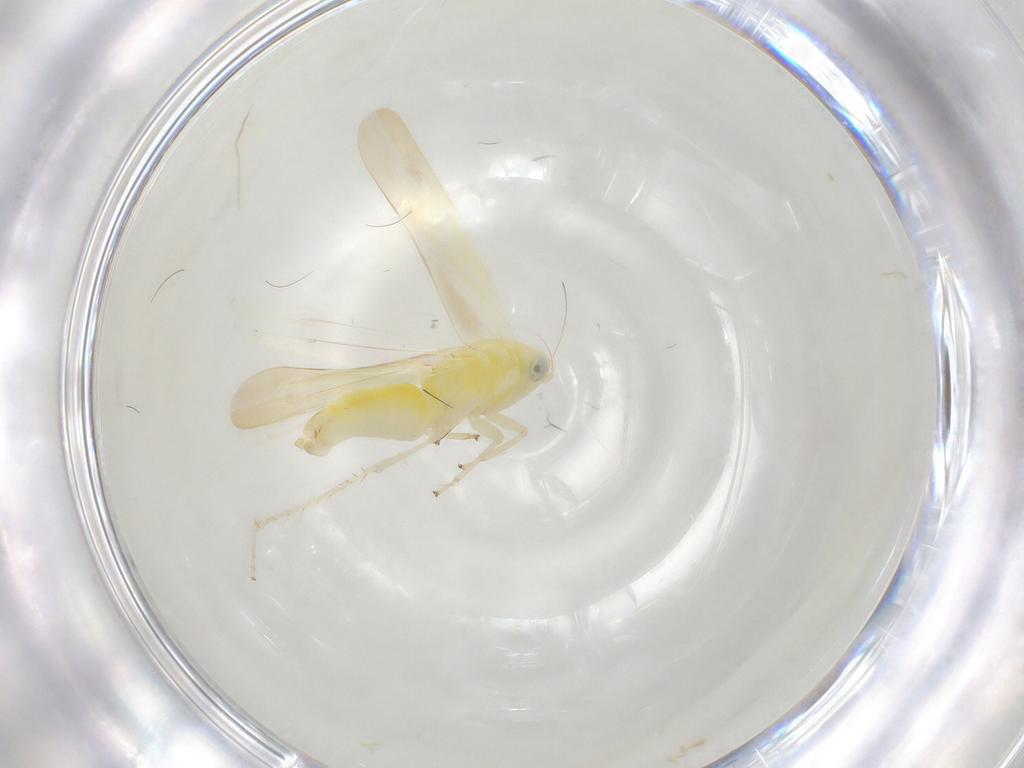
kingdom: Animalia
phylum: Arthropoda
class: Insecta
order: Hemiptera
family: Cicadellidae
